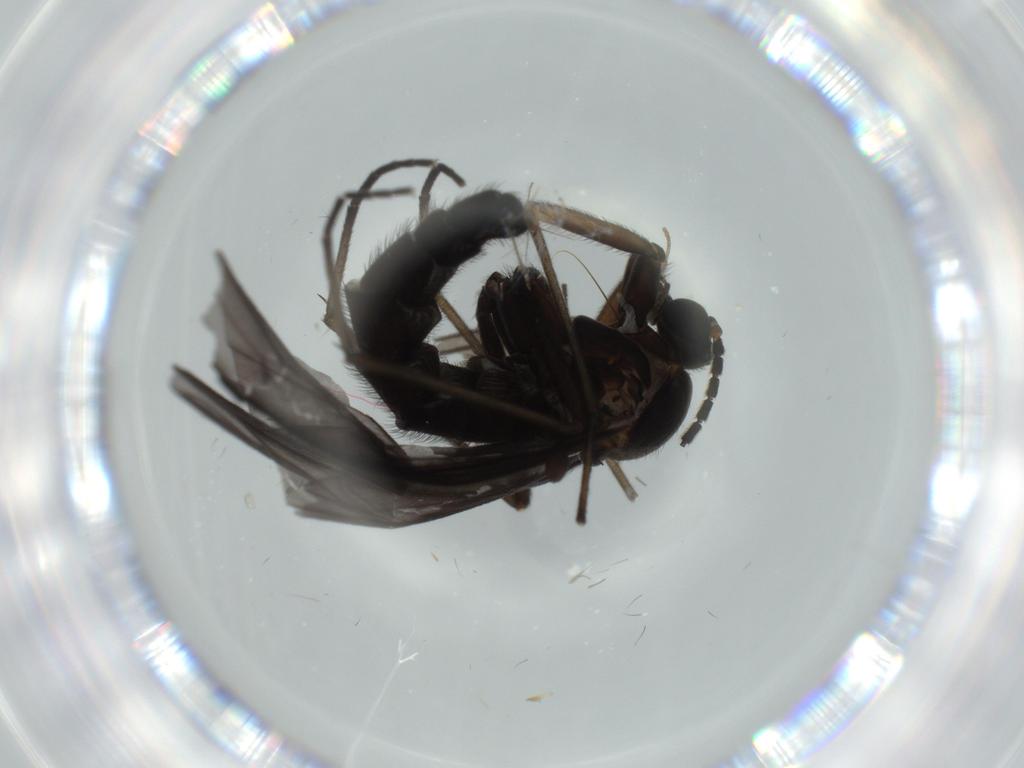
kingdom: Animalia
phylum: Arthropoda
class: Insecta
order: Diptera
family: Sciaridae
